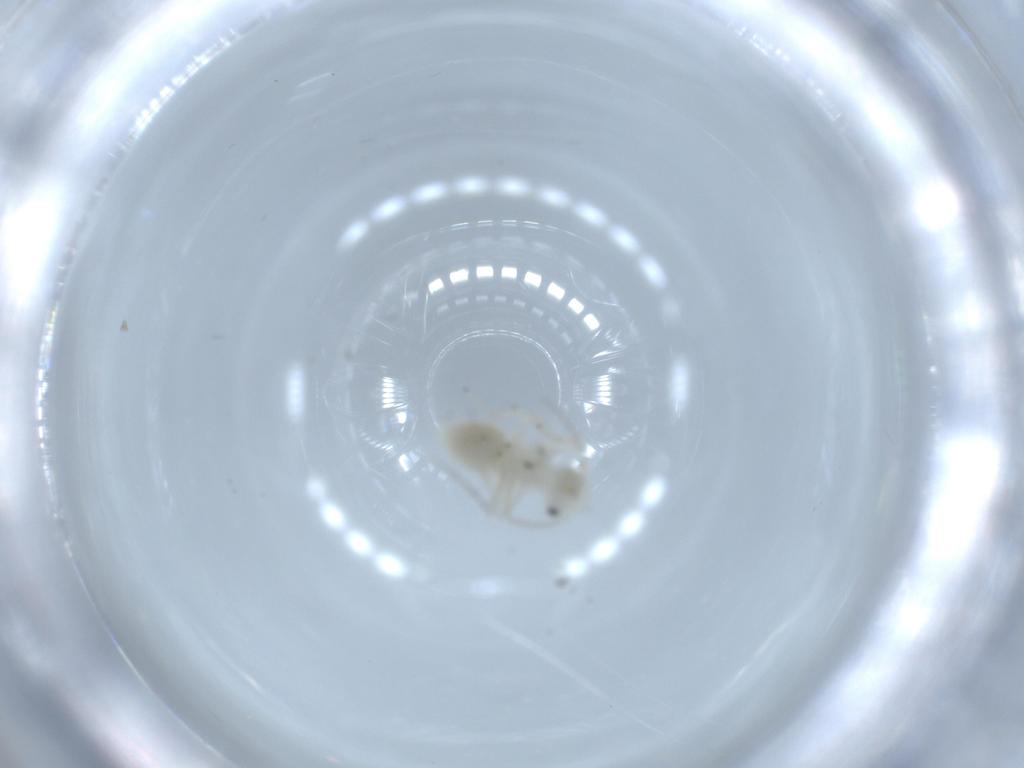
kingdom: Animalia
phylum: Arthropoda
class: Insecta
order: Psocodea
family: Caeciliusidae
